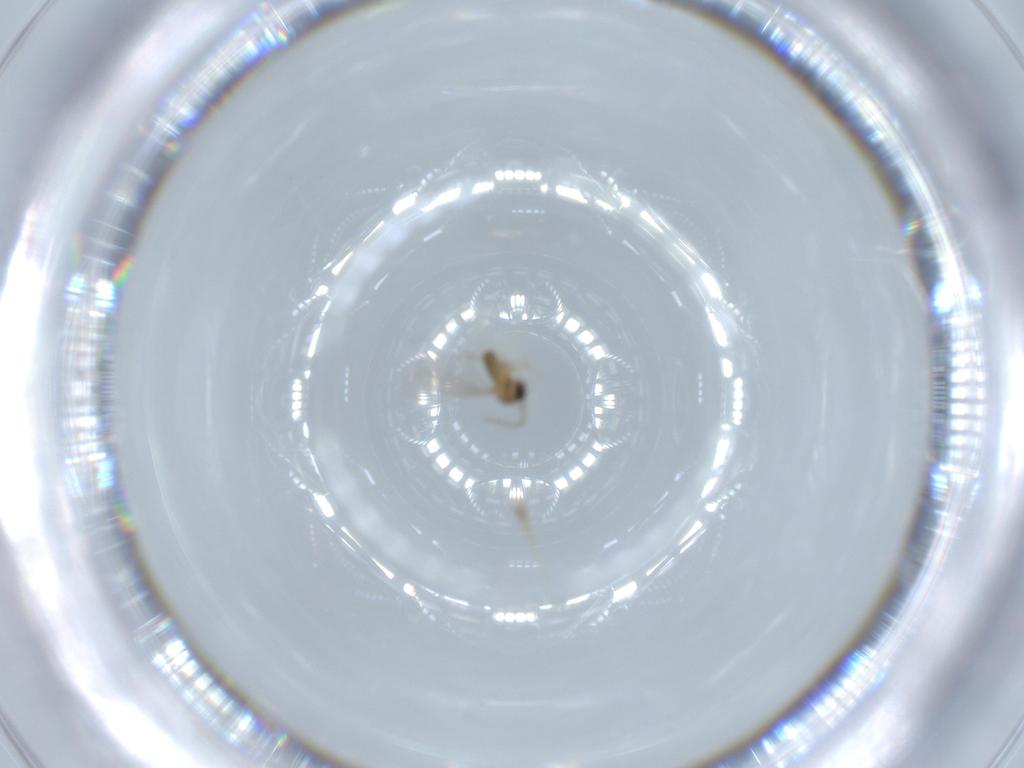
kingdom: Animalia
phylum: Arthropoda
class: Insecta
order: Diptera
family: Cecidomyiidae
